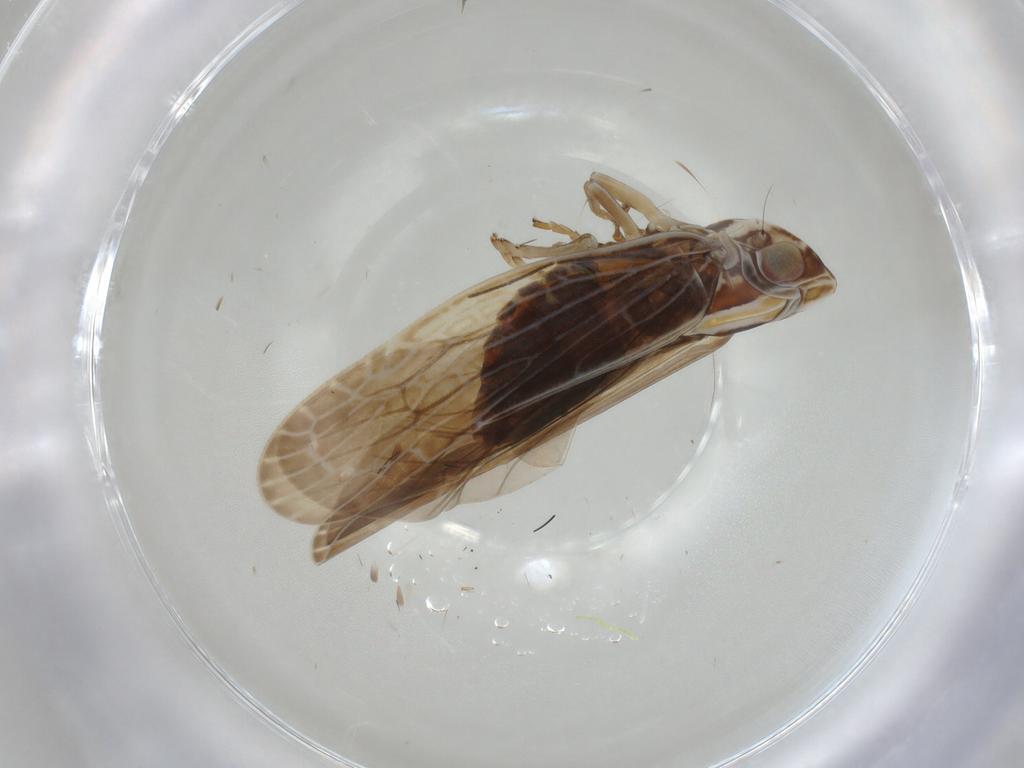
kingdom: Animalia
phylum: Arthropoda
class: Insecta
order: Hemiptera
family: Achilidae
